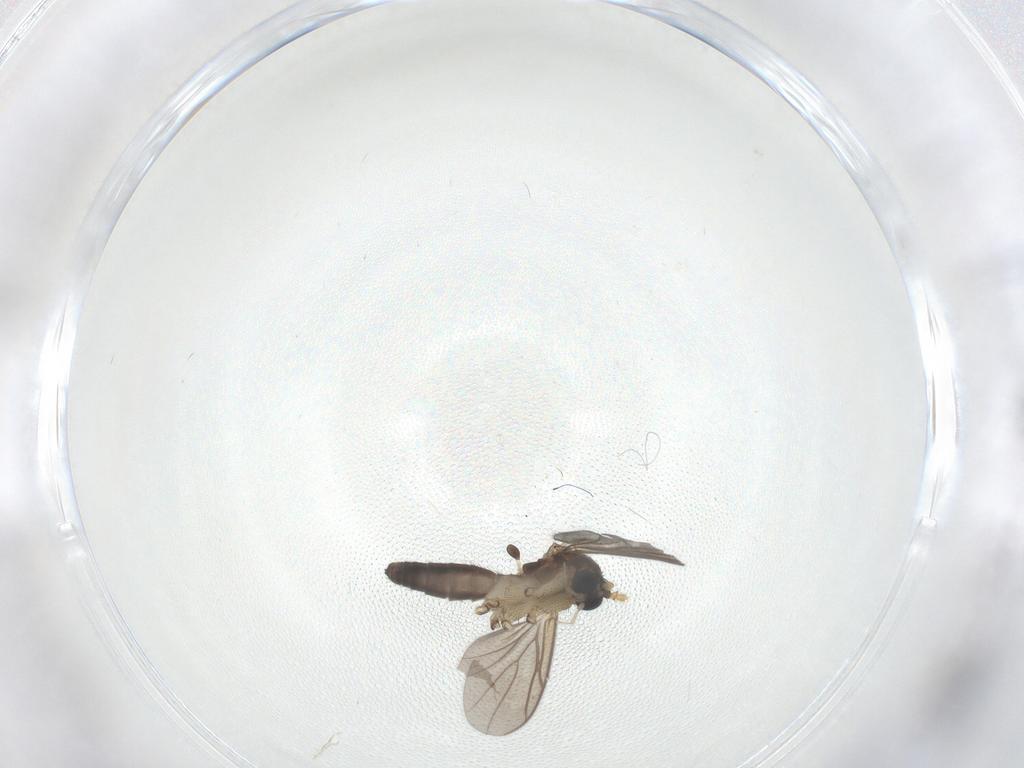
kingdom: Animalia
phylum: Arthropoda
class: Insecta
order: Diptera
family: Mycetophilidae
